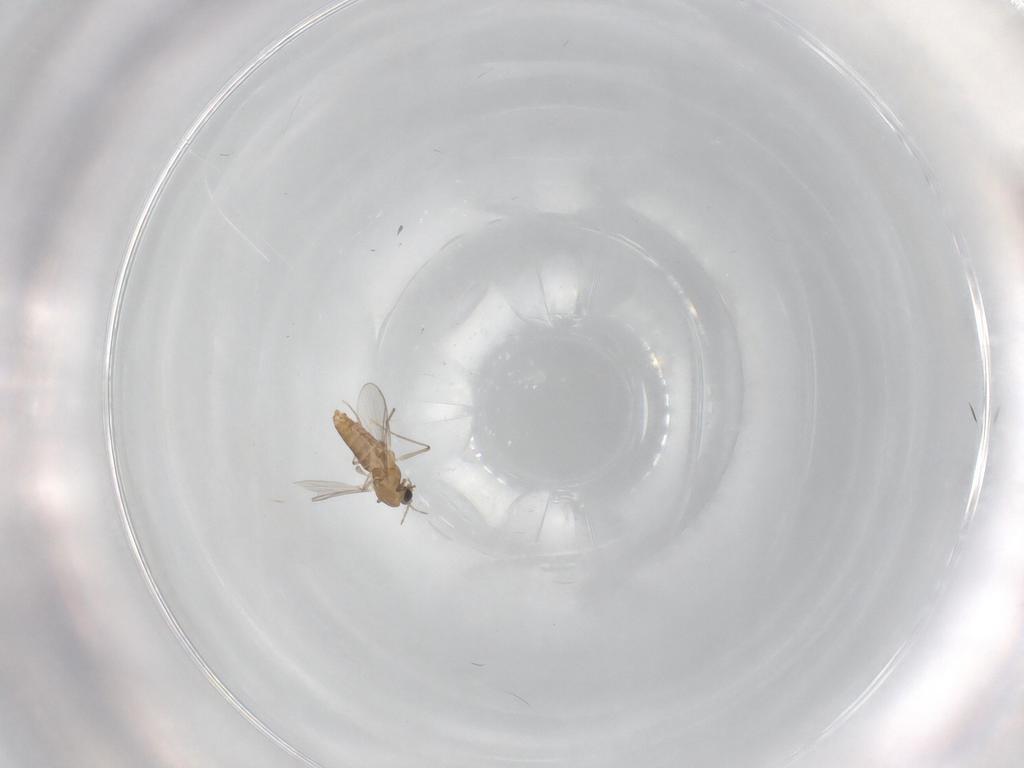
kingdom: Animalia
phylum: Arthropoda
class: Insecta
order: Diptera
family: Chironomidae
